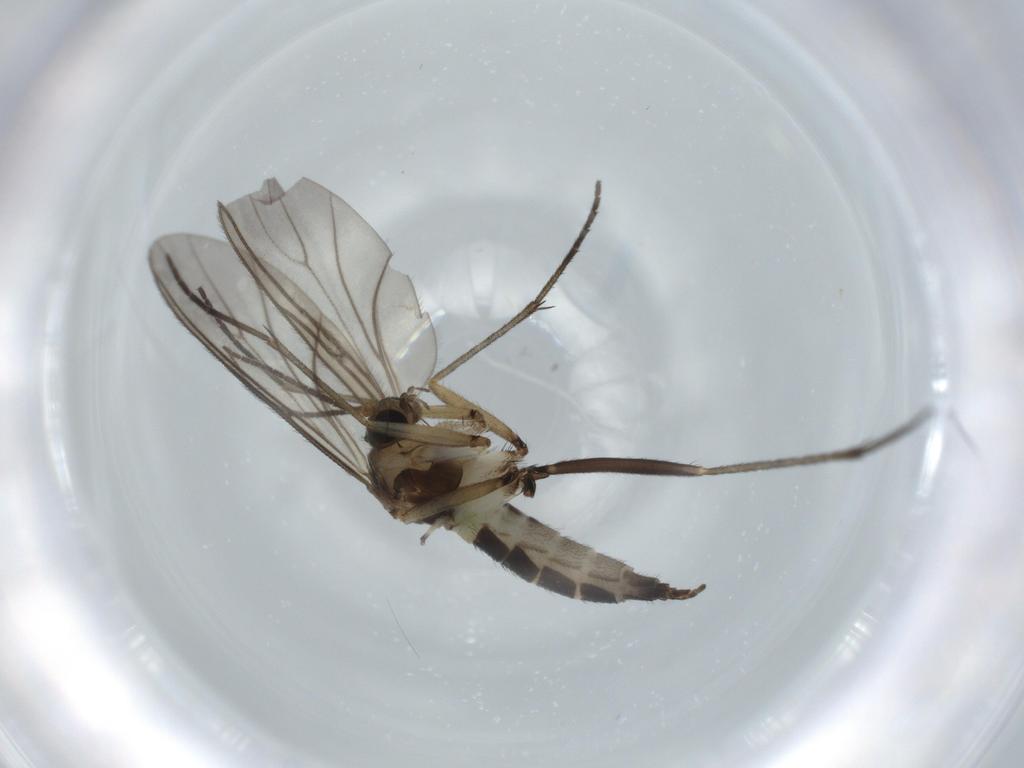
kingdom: Animalia
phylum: Arthropoda
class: Insecta
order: Diptera
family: Sciaridae
